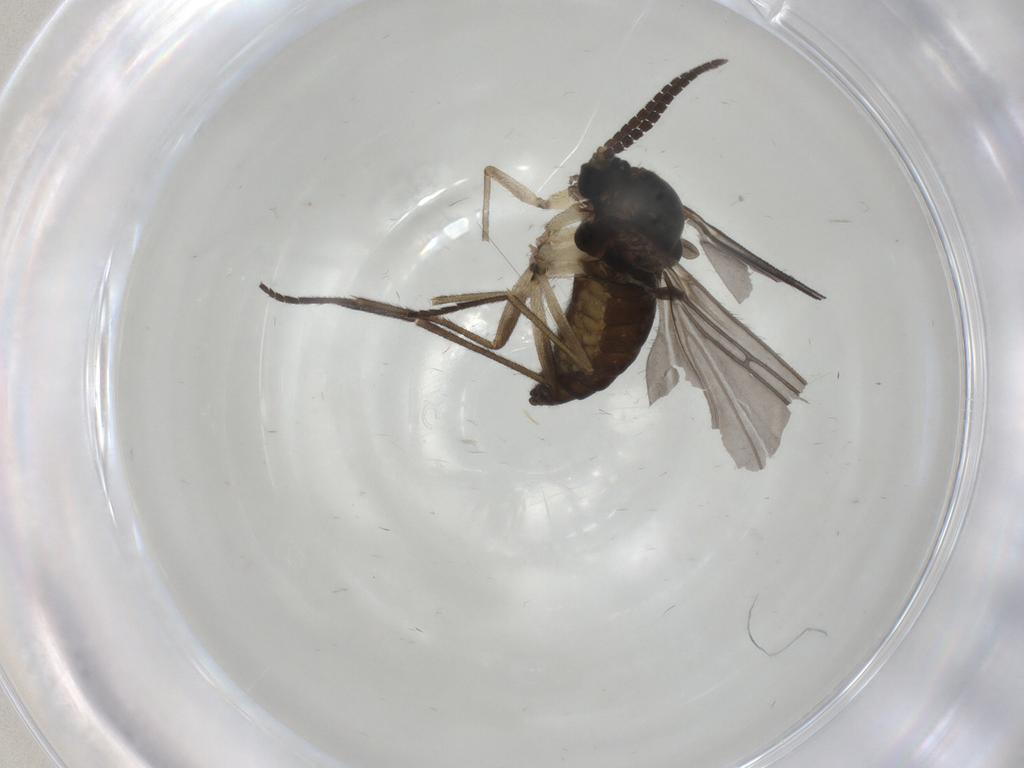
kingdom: Animalia
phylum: Arthropoda
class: Insecta
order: Diptera
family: Sciaridae
